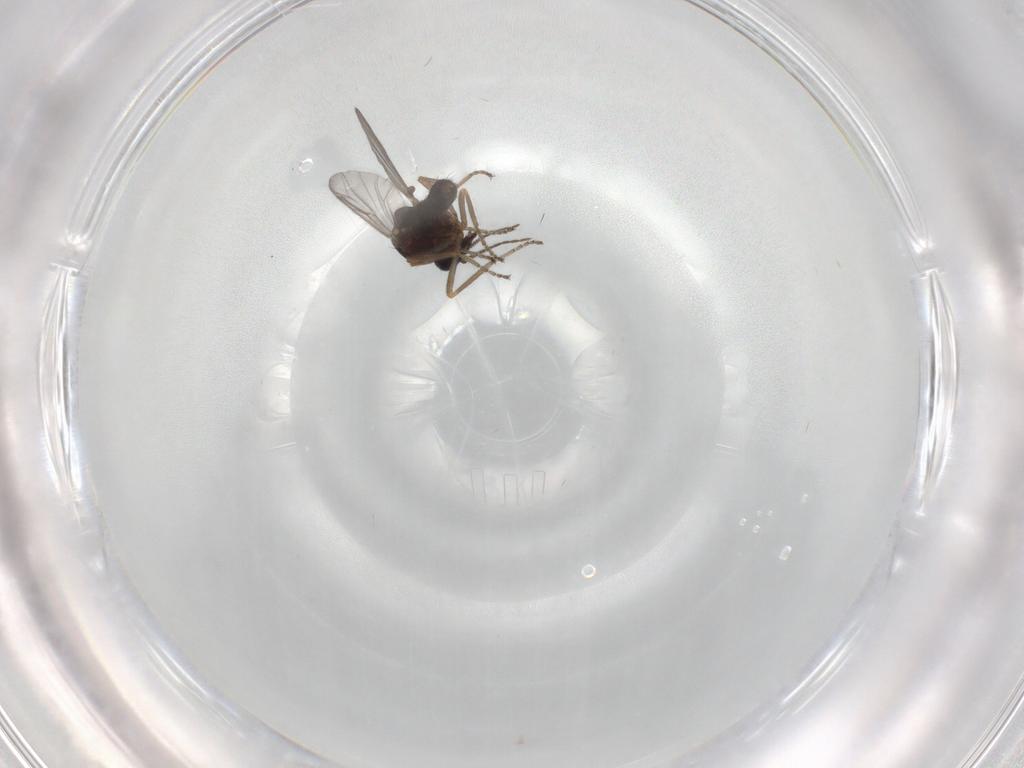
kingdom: Animalia
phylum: Arthropoda
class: Insecta
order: Diptera
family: Ceratopogonidae
